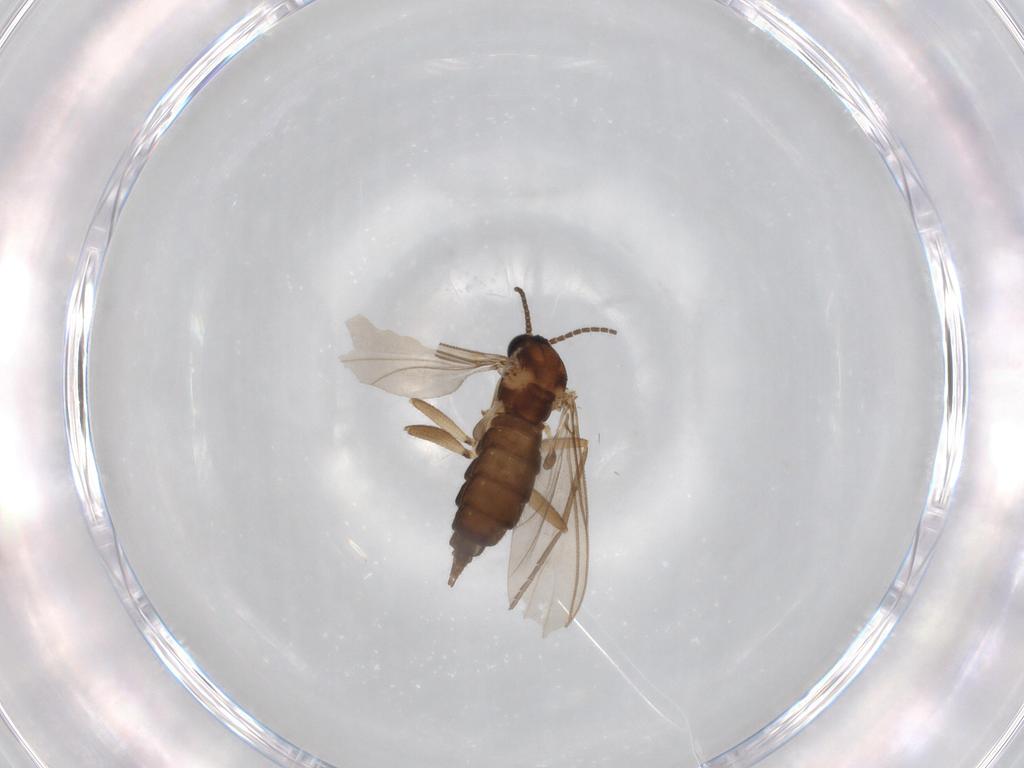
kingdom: Animalia
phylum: Arthropoda
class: Insecta
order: Diptera
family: Sciaridae
